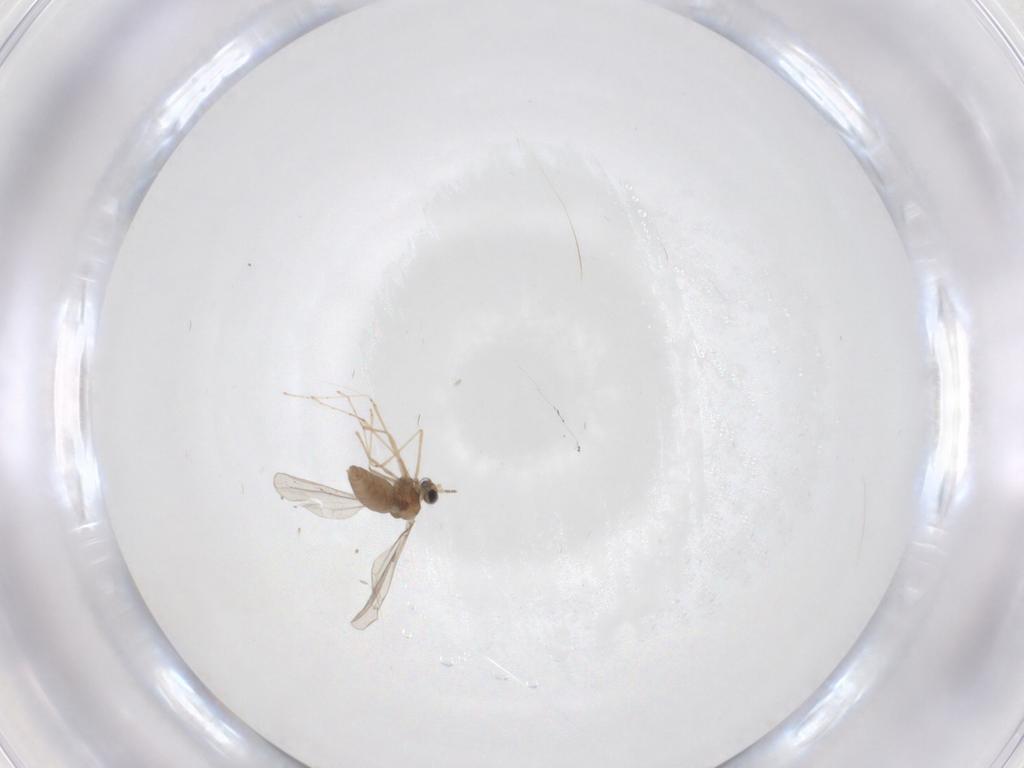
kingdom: Animalia
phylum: Arthropoda
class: Insecta
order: Diptera
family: Cecidomyiidae
